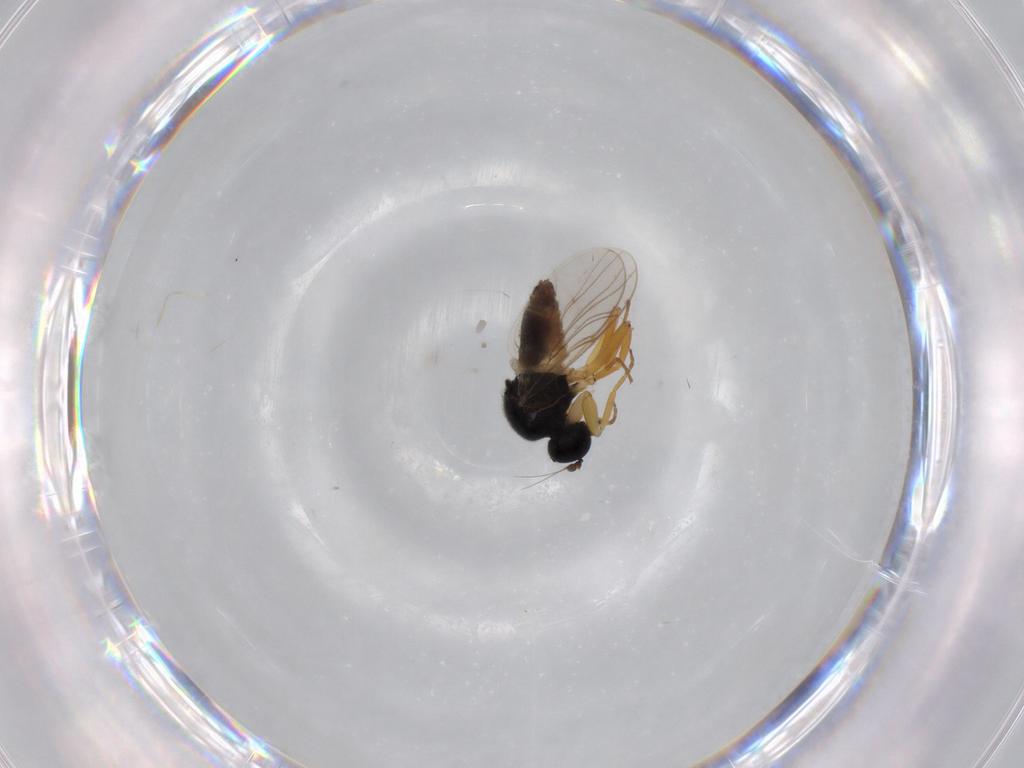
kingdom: Animalia
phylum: Arthropoda
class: Insecta
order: Diptera
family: Hybotidae
